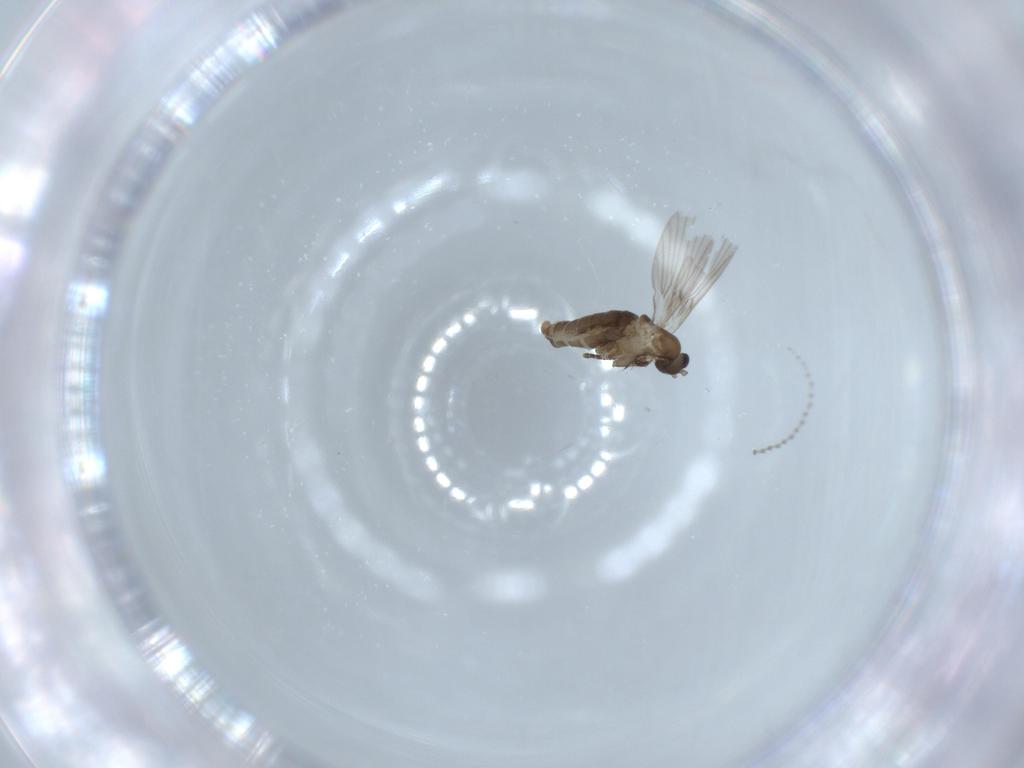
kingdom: Animalia
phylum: Arthropoda
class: Insecta
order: Diptera
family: Psychodidae
